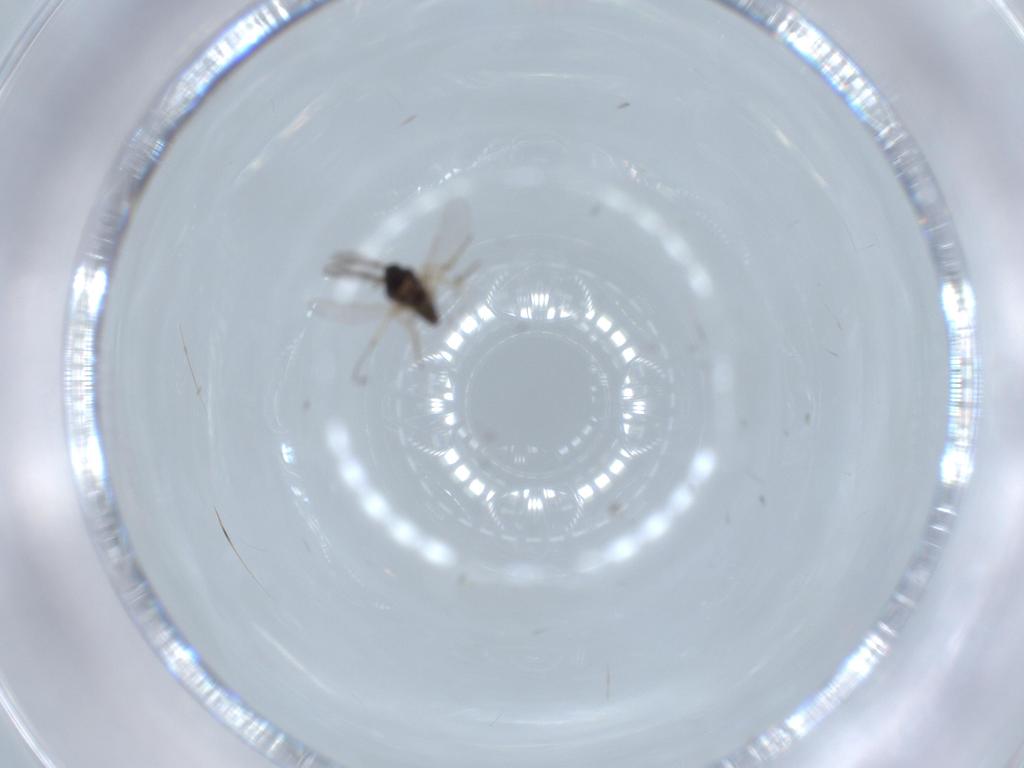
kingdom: Animalia
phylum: Arthropoda
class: Insecta
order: Diptera
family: Ceratopogonidae
